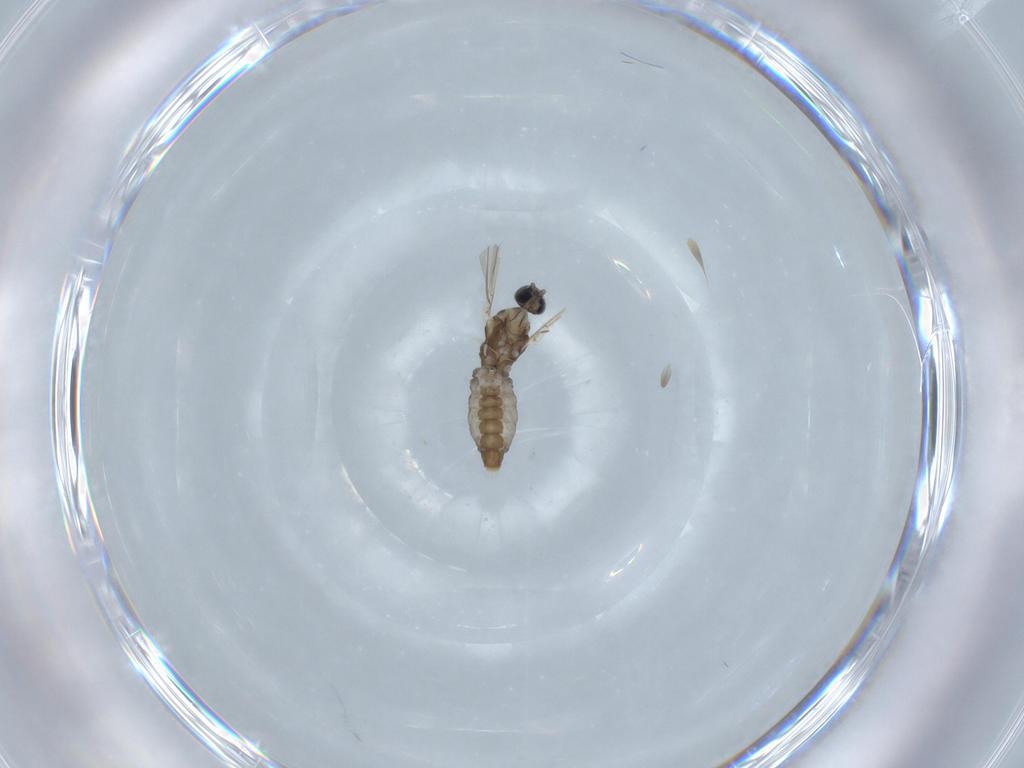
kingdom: Animalia
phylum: Arthropoda
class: Insecta
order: Diptera
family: Cecidomyiidae
